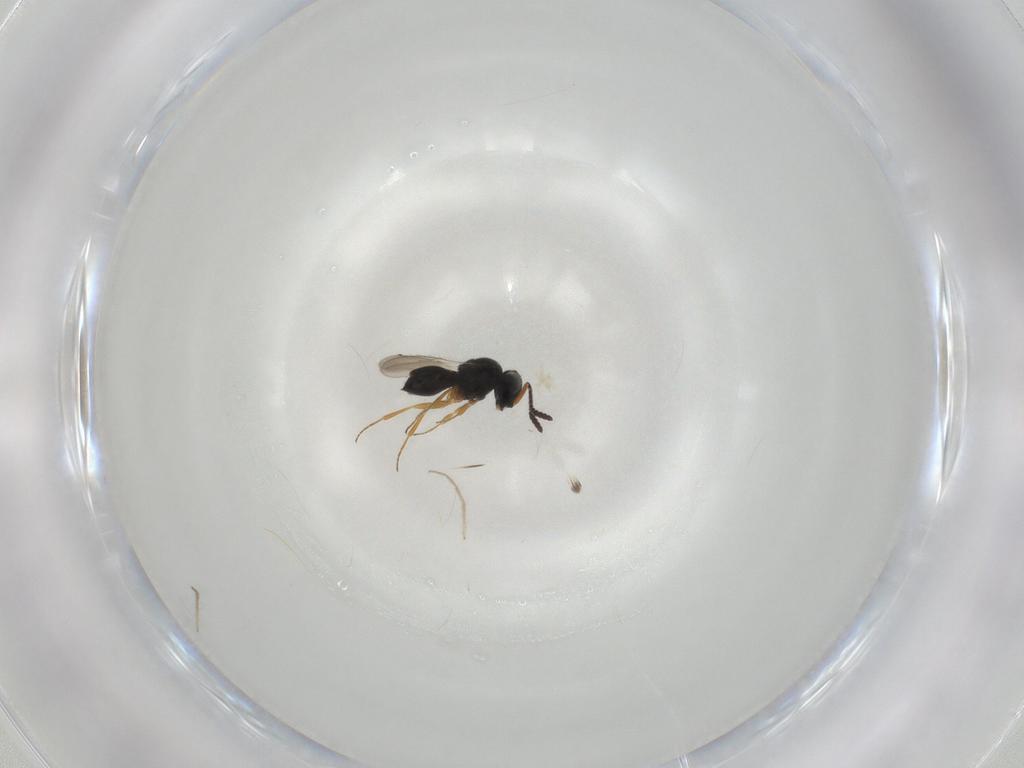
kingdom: Animalia
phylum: Arthropoda
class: Insecta
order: Hymenoptera
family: Scelionidae
